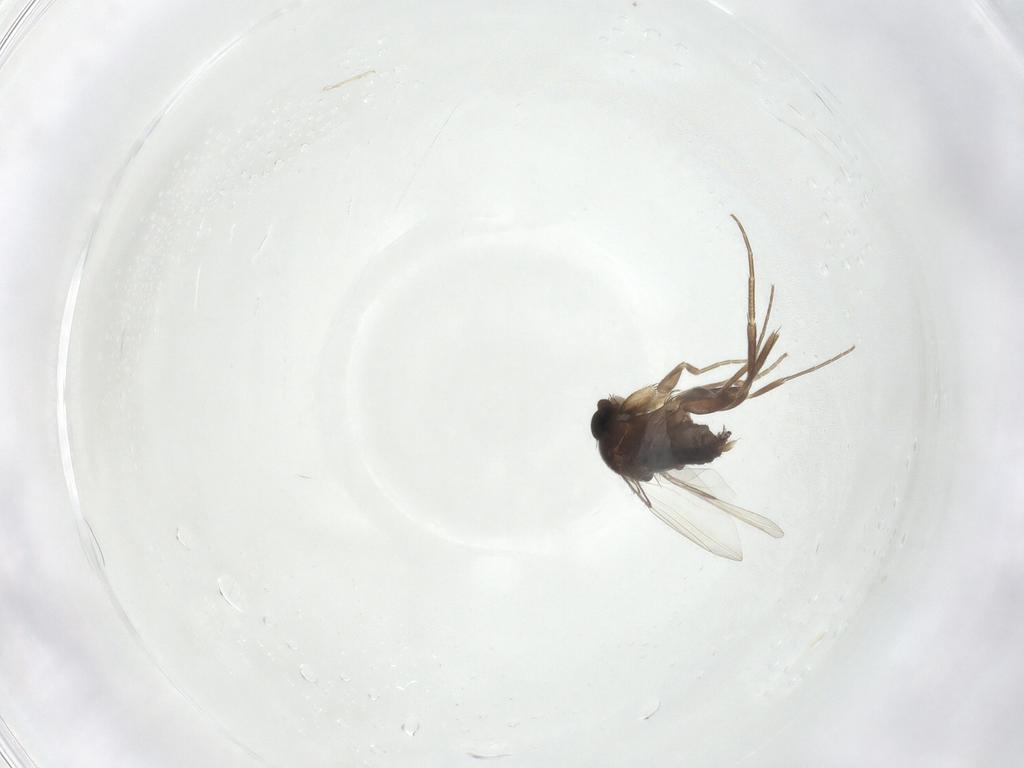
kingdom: Animalia
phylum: Arthropoda
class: Insecta
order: Diptera
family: Phoridae
